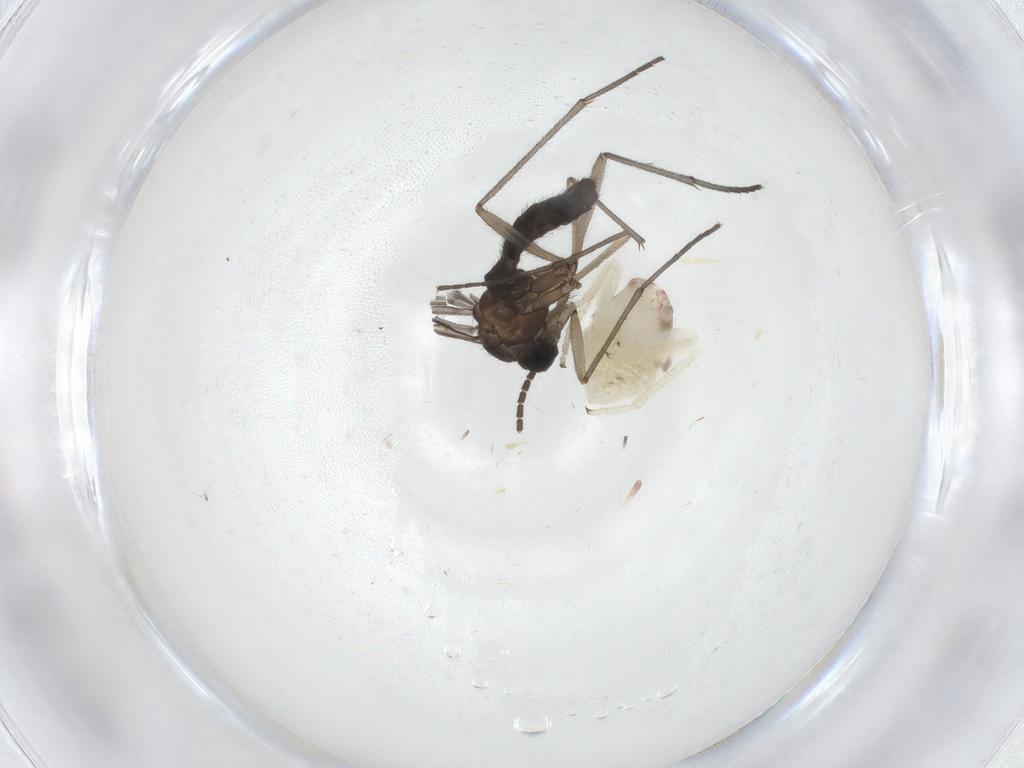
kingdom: Animalia
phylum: Arthropoda
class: Insecta
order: Psocodea
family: Amphipsocidae
